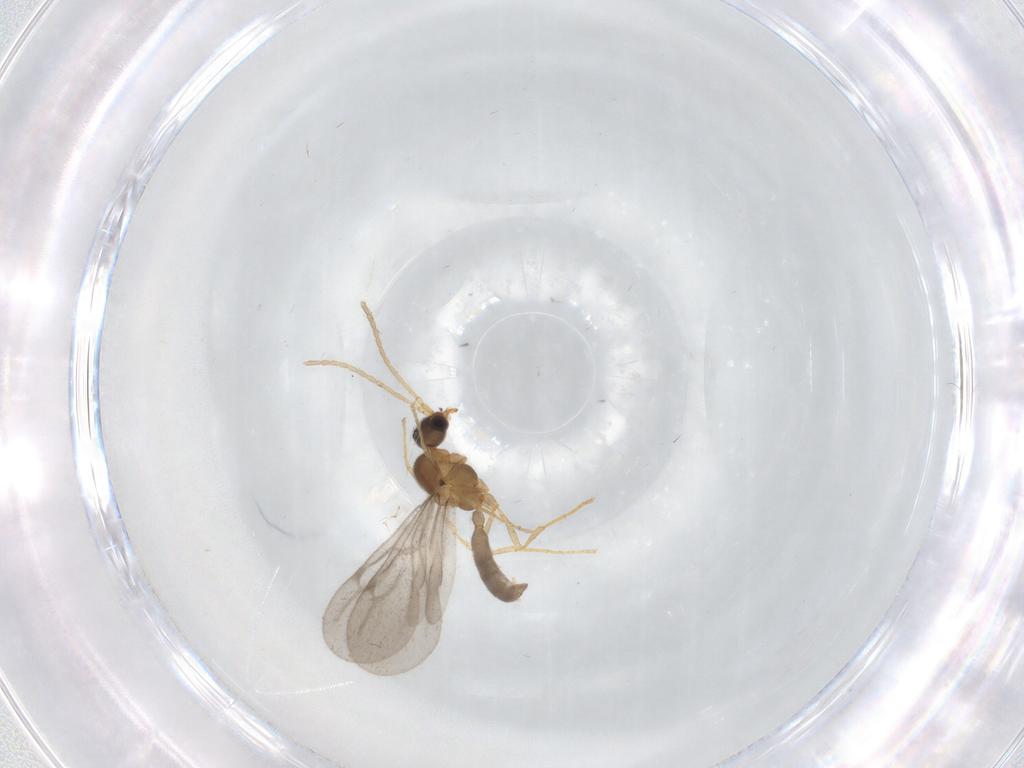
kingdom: Animalia
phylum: Arthropoda
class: Insecta
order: Hymenoptera
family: Formicidae
